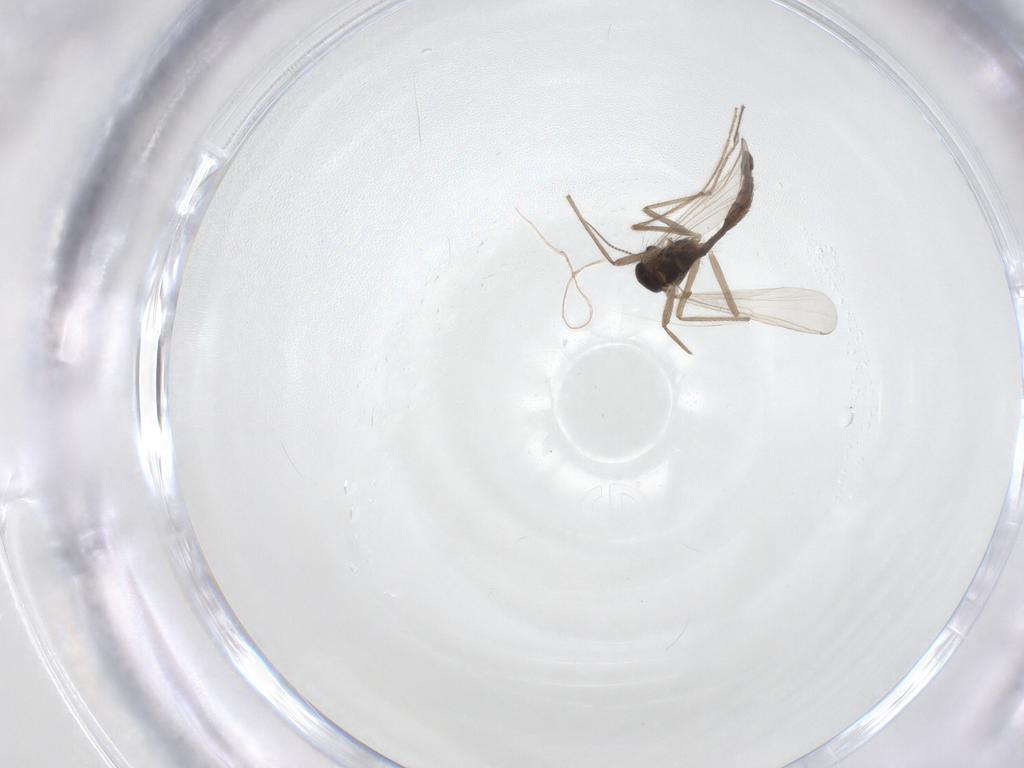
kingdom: Animalia
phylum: Arthropoda
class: Insecta
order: Diptera
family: Chironomidae
